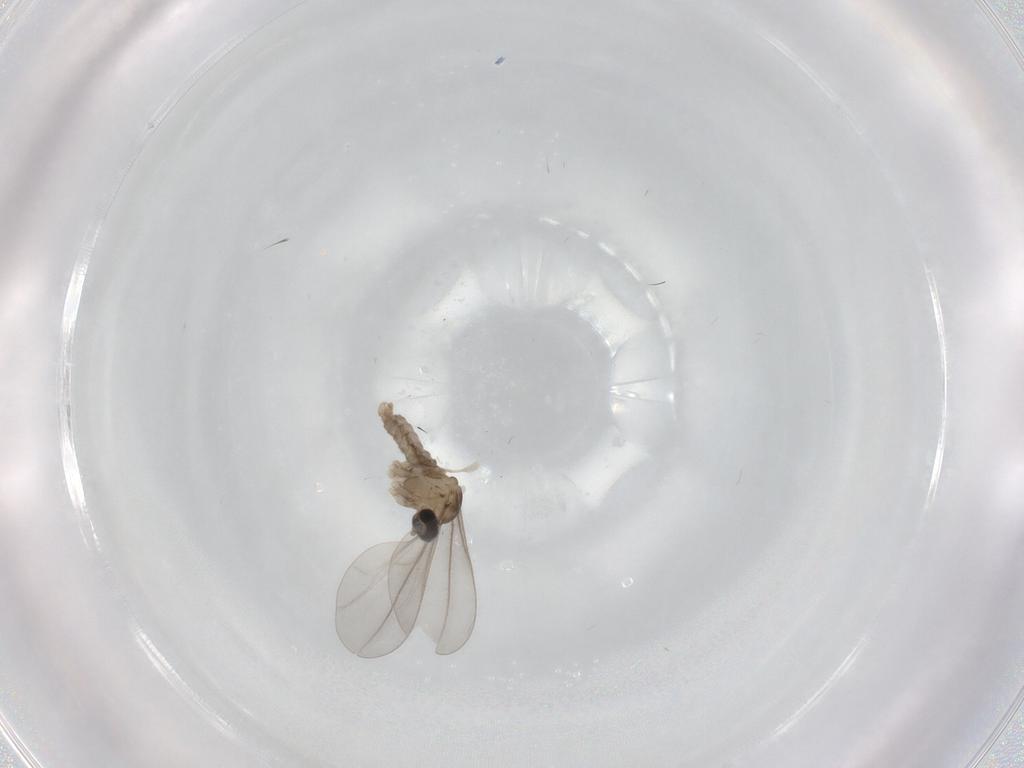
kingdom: Animalia
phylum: Arthropoda
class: Insecta
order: Diptera
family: Cecidomyiidae
